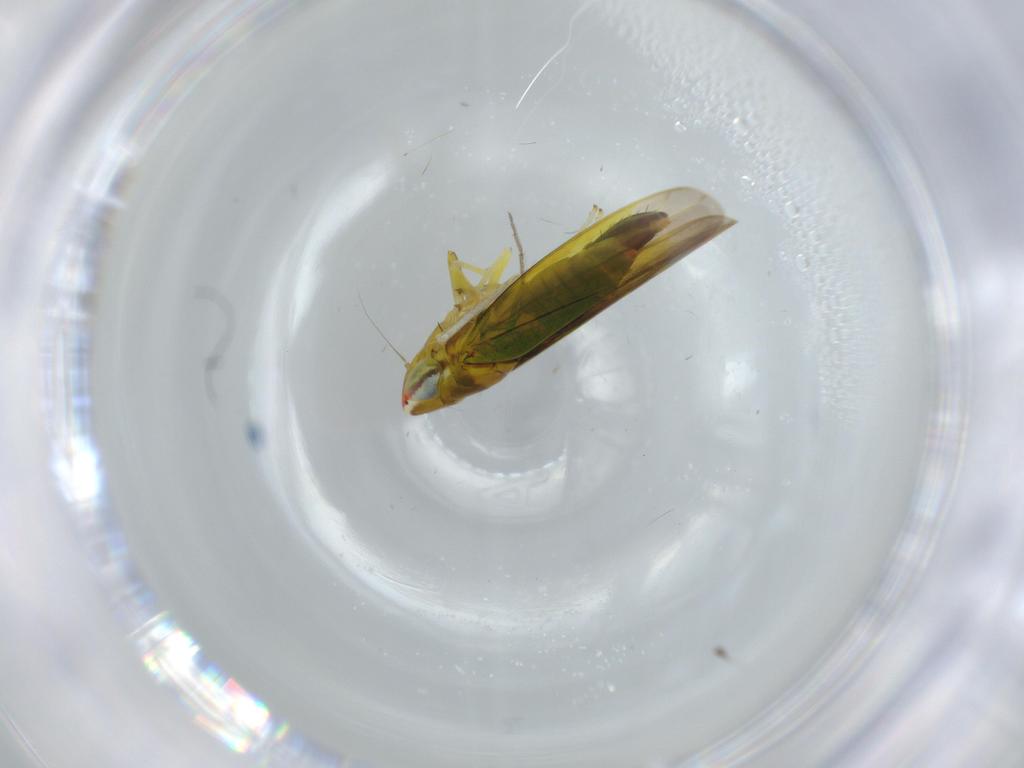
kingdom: Animalia
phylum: Arthropoda
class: Insecta
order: Hemiptera
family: Cicadellidae
